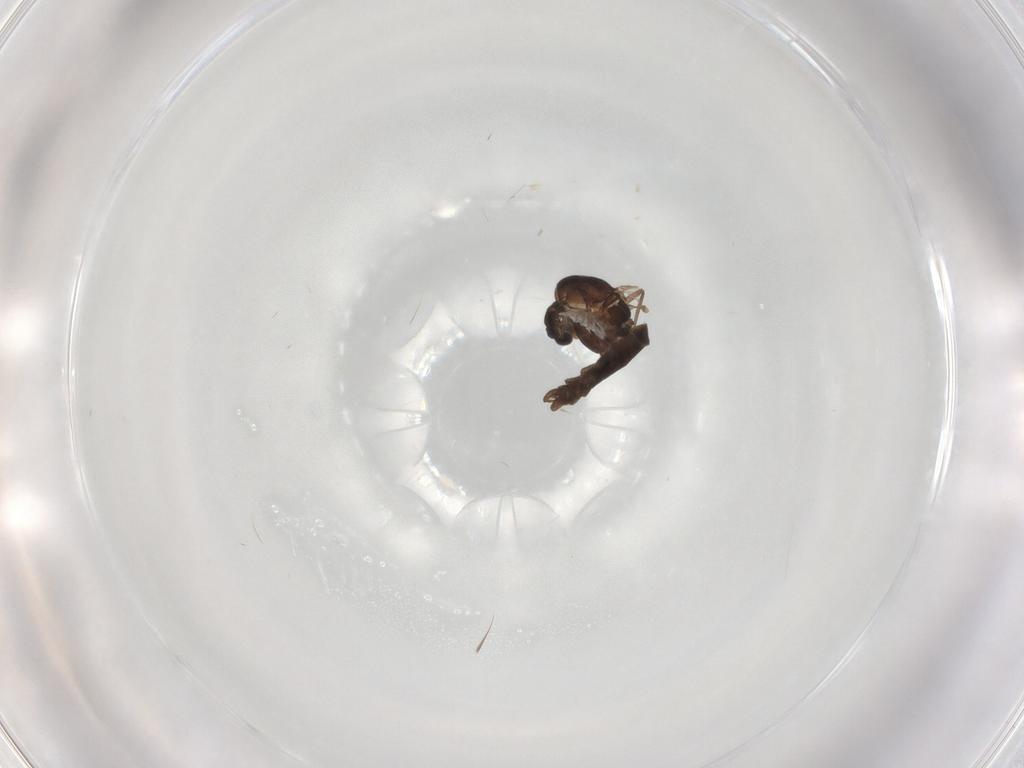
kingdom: Animalia
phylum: Arthropoda
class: Insecta
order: Diptera
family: Chironomidae
